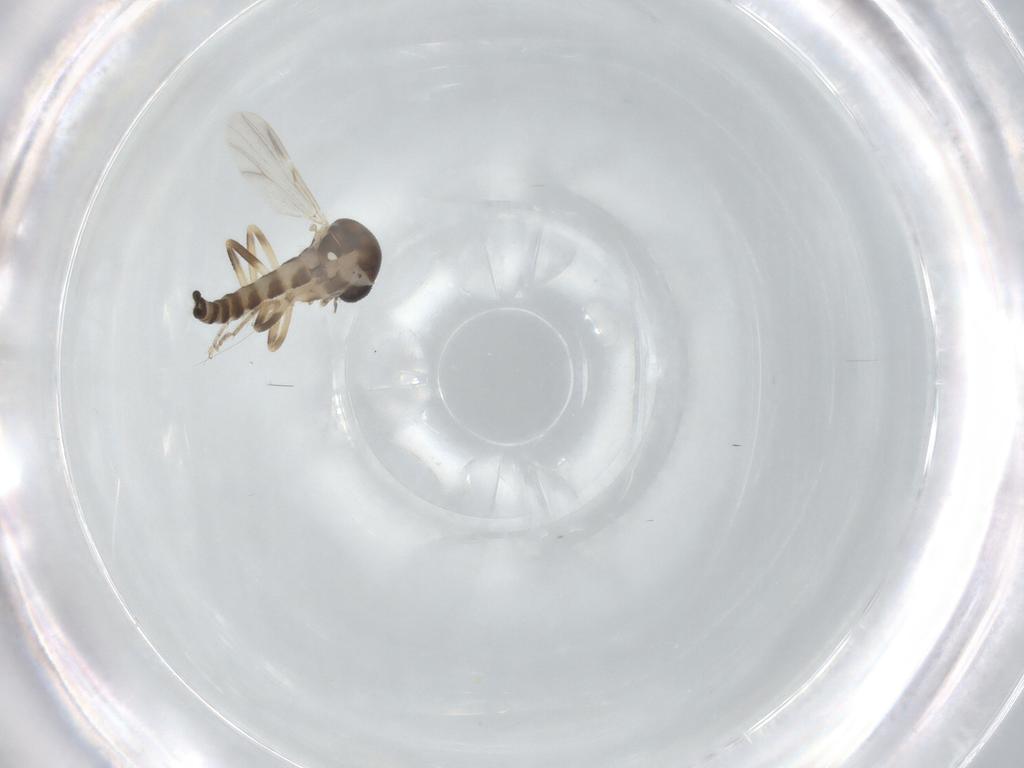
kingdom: Animalia
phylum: Arthropoda
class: Insecta
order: Diptera
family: Ceratopogonidae
